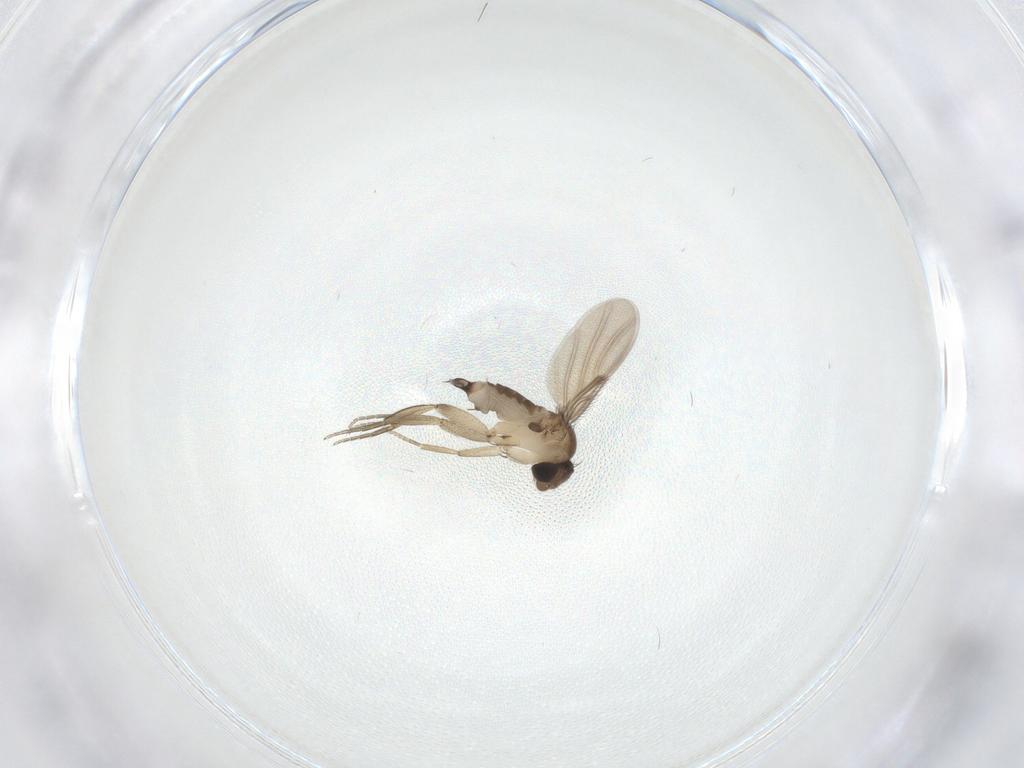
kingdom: Animalia
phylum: Arthropoda
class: Insecta
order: Diptera
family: Phoridae
